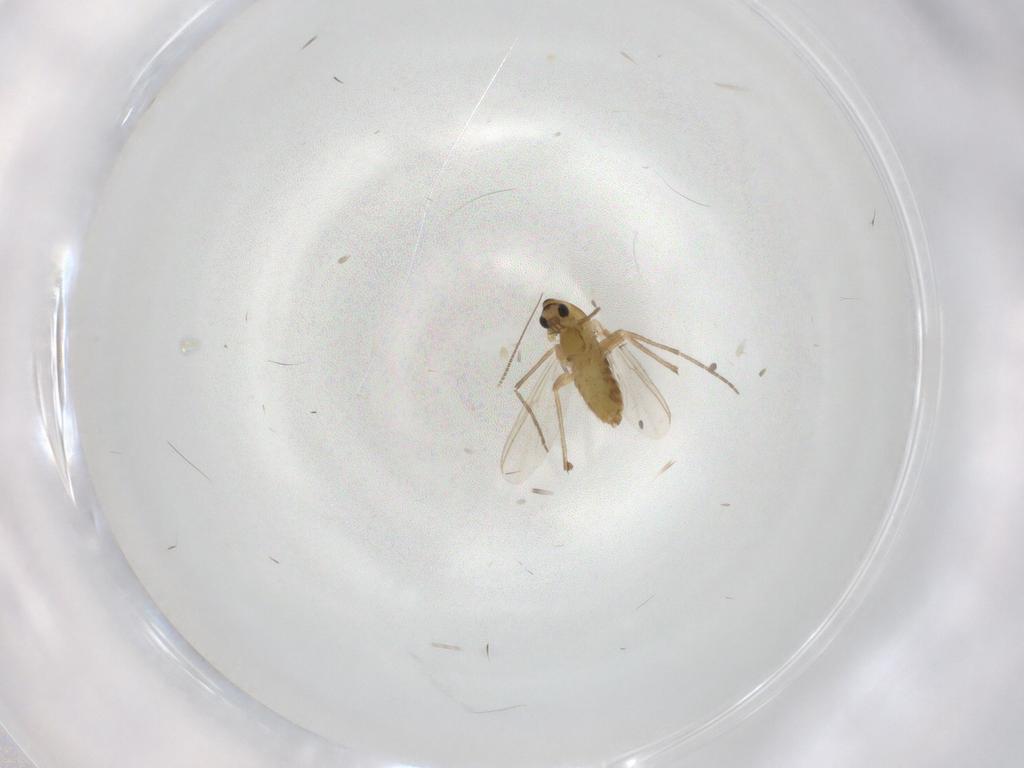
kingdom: Animalia
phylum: Arthropoda
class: Insecta
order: Diptera
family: Chironomidae
